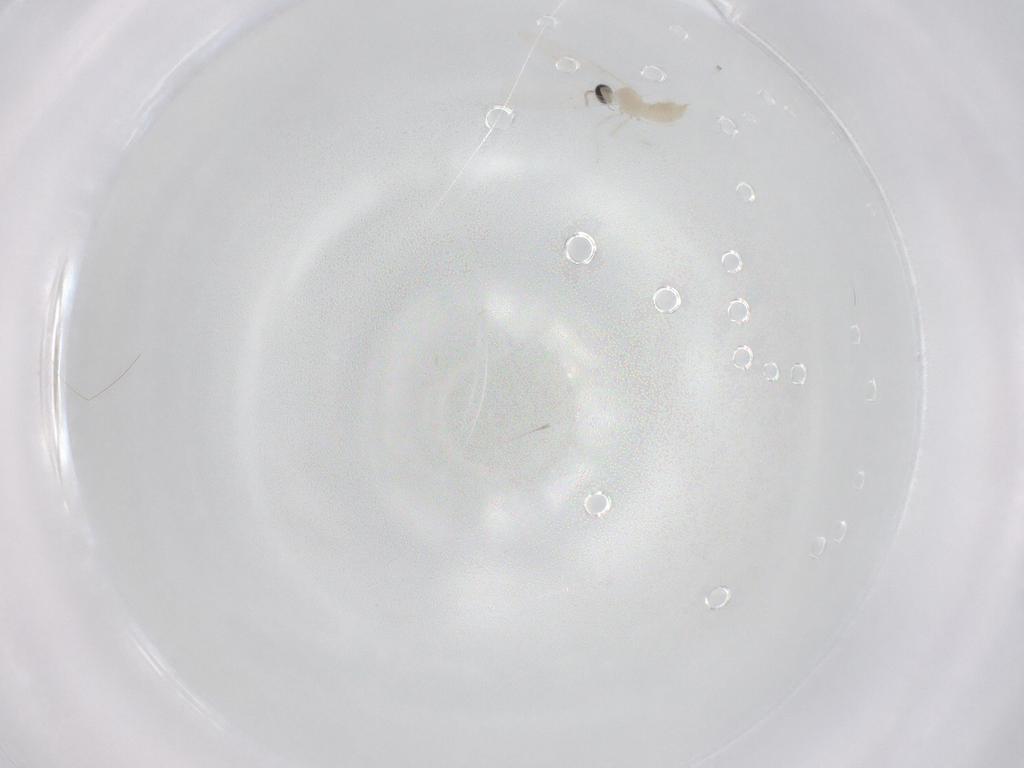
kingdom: Animalia
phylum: Arthropoda
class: Insecta
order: Diptera
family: Cecidomyiidae
